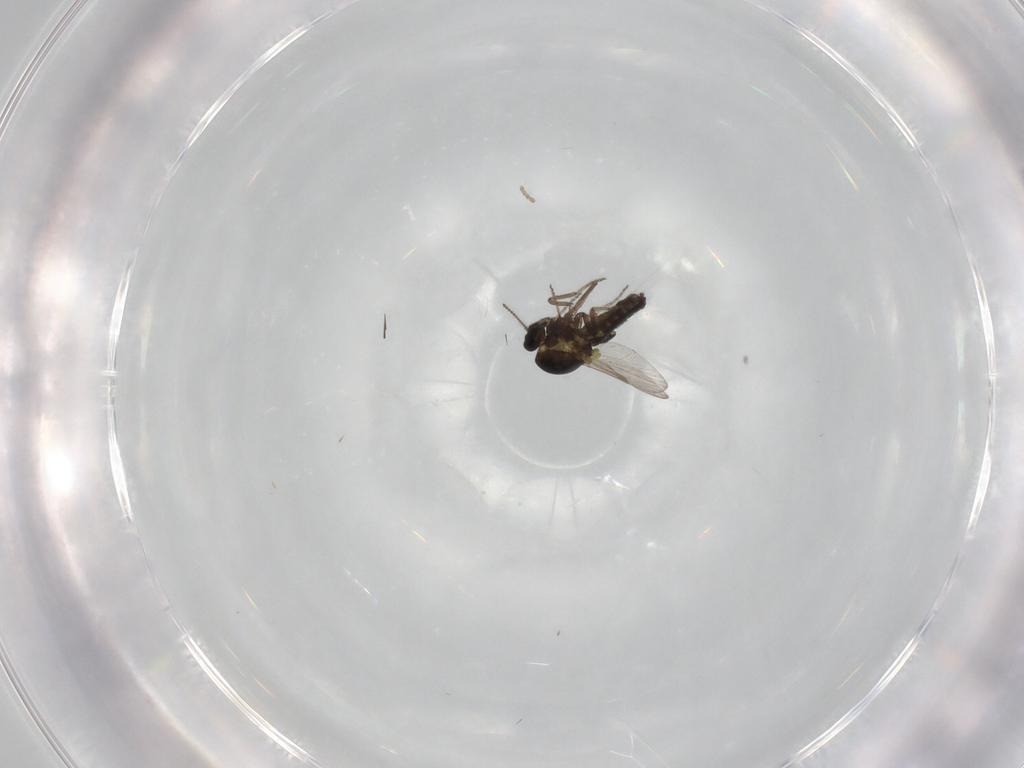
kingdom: Animalia
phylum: Arthropoda
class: Insecta
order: Diptera
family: Ceratopogonidae
